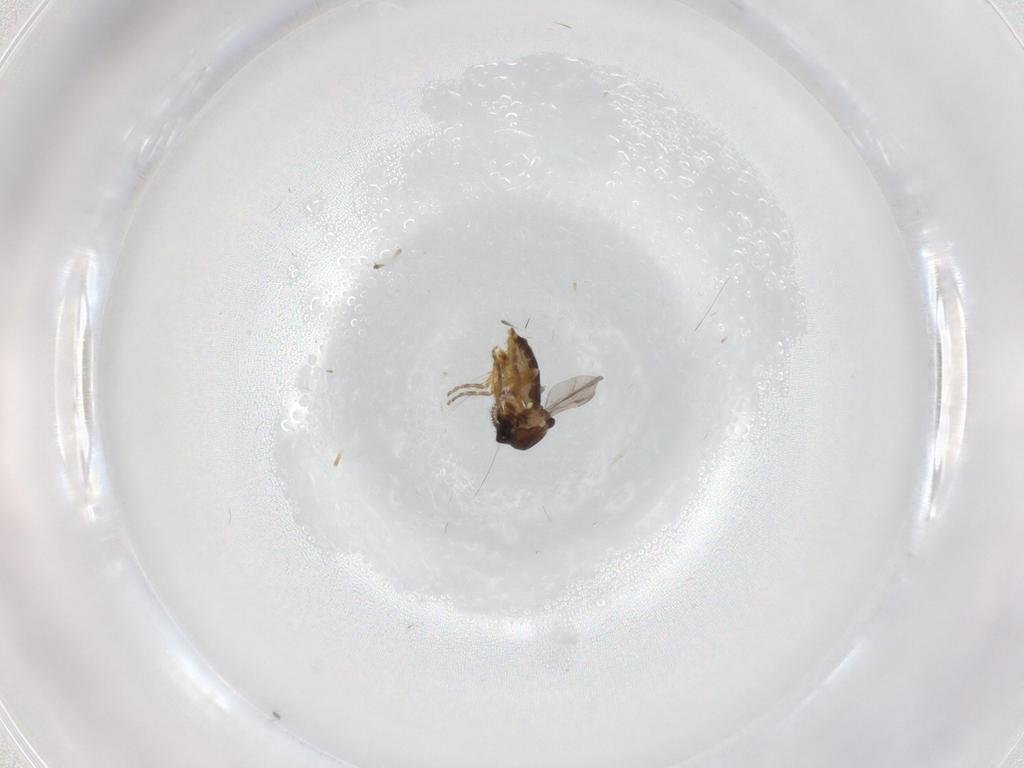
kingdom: Animalia
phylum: Arthropoda
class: Insecta
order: Diptera
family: Ceratopogonidae
